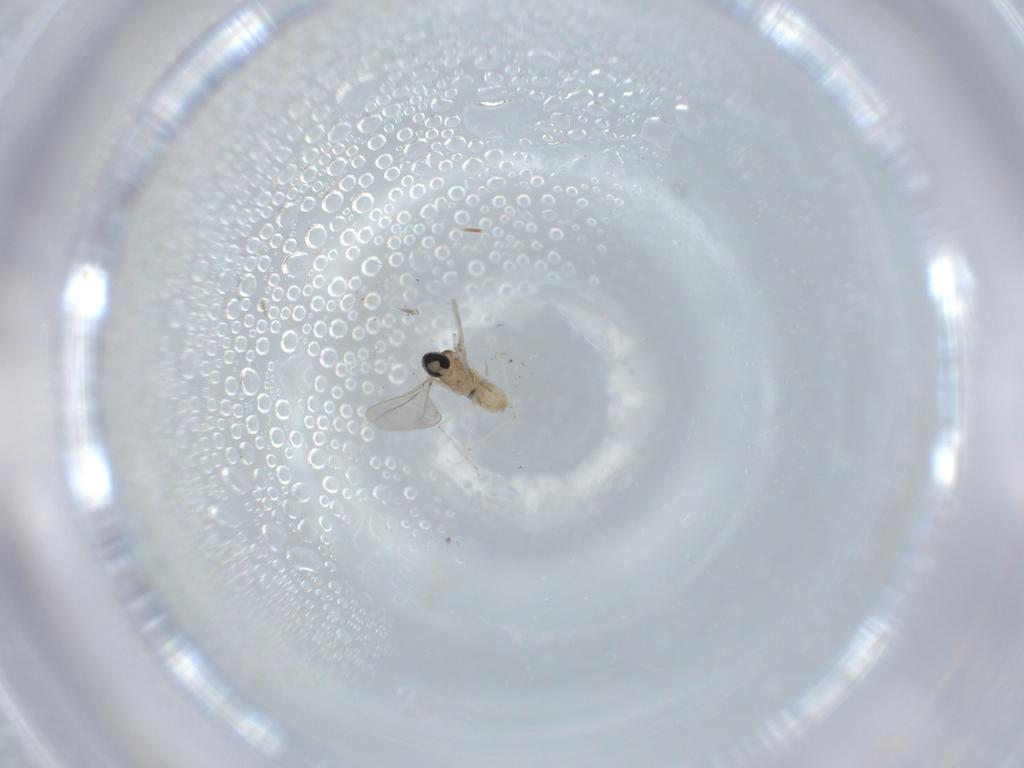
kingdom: Animalia
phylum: Arthropoda
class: Insecta
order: Diptera
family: Cecidomyiidae
